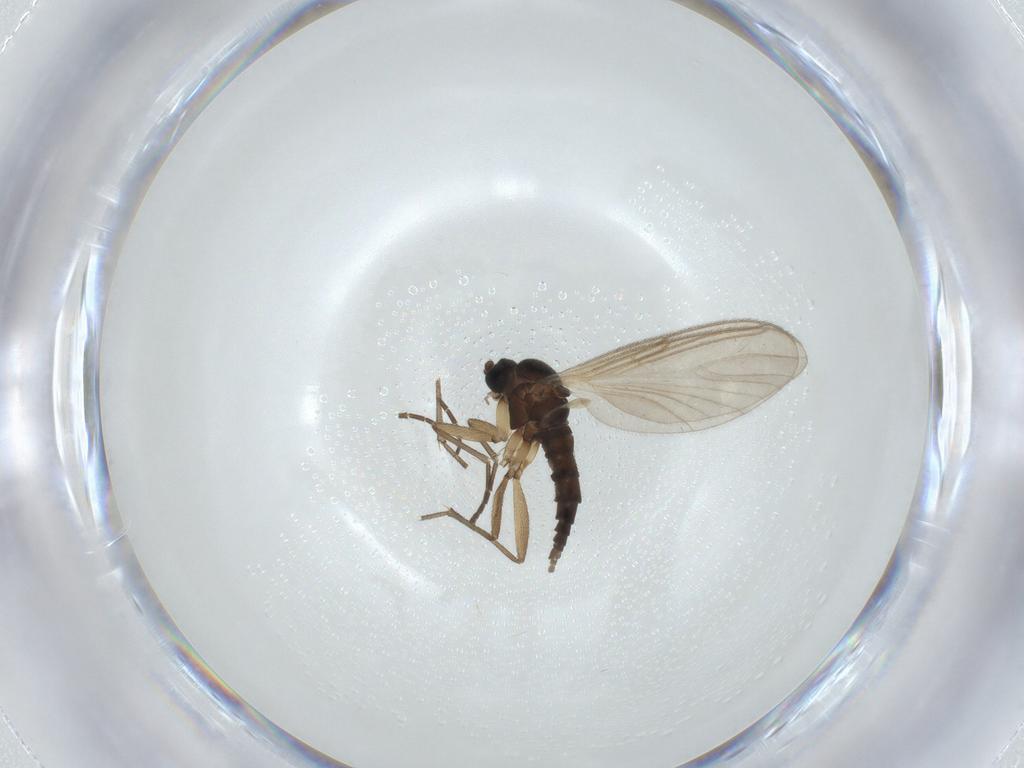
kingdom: Animalia
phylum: Arthropoda
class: Insecta
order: Diptera
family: Sciaridae
